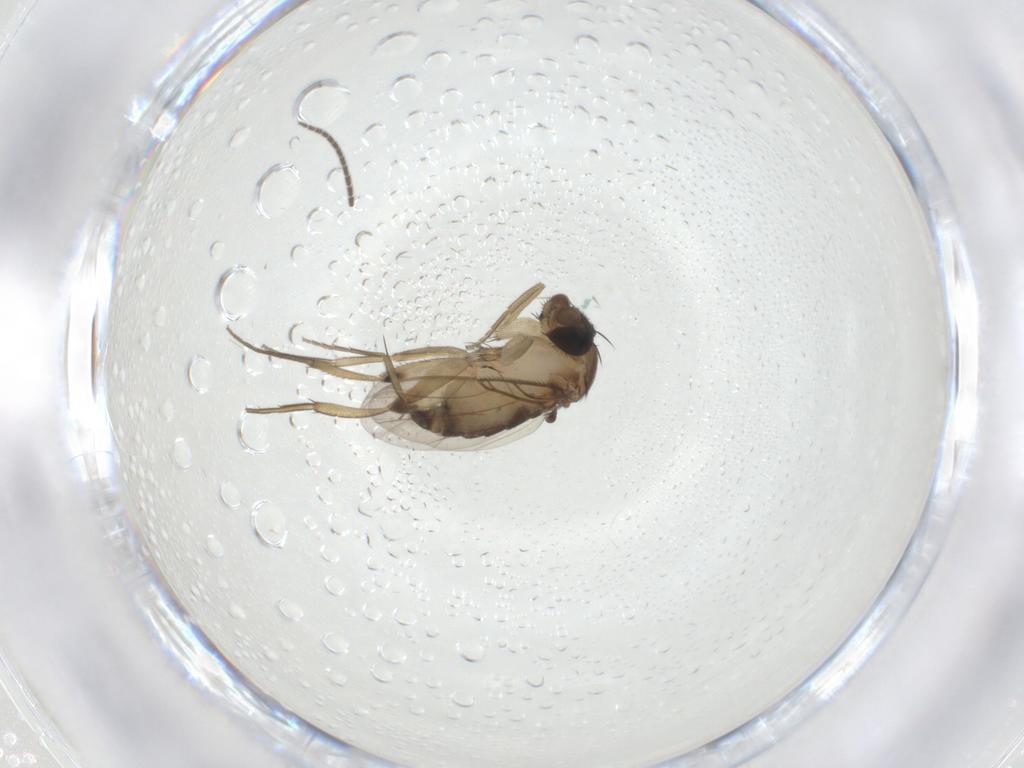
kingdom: Animalia
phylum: Arthropoda
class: Insecta
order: Diptera
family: Phoridae
